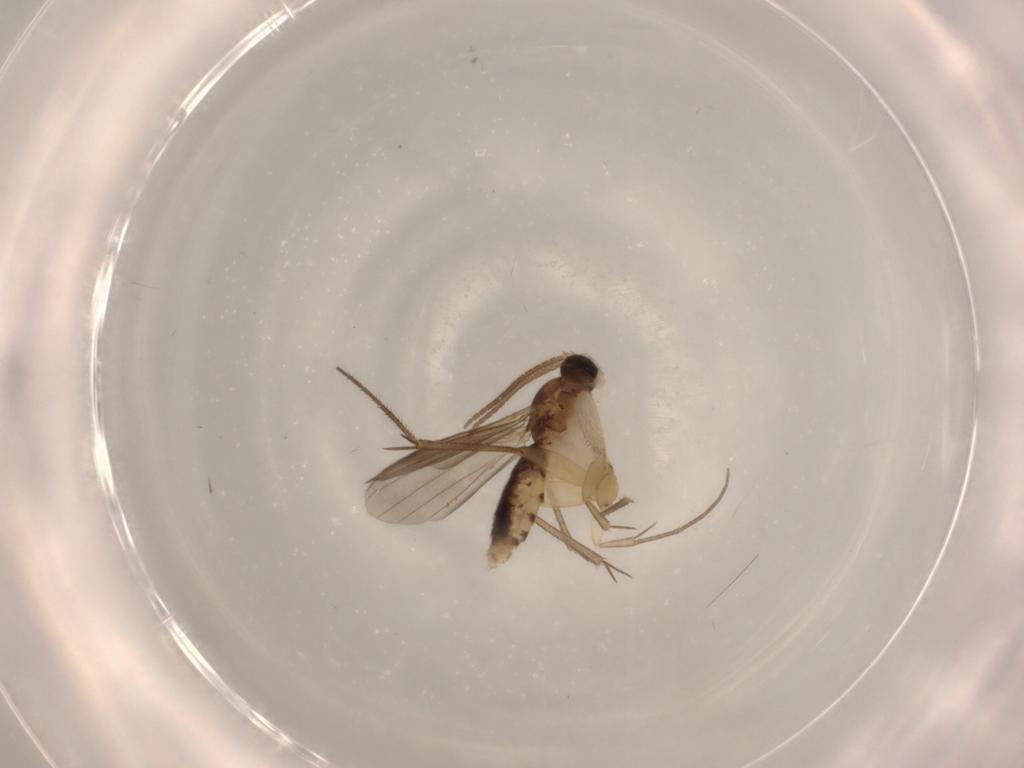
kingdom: Animalia
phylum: Arthropoda
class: Insecta
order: Diptera
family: Mycetophilidae
